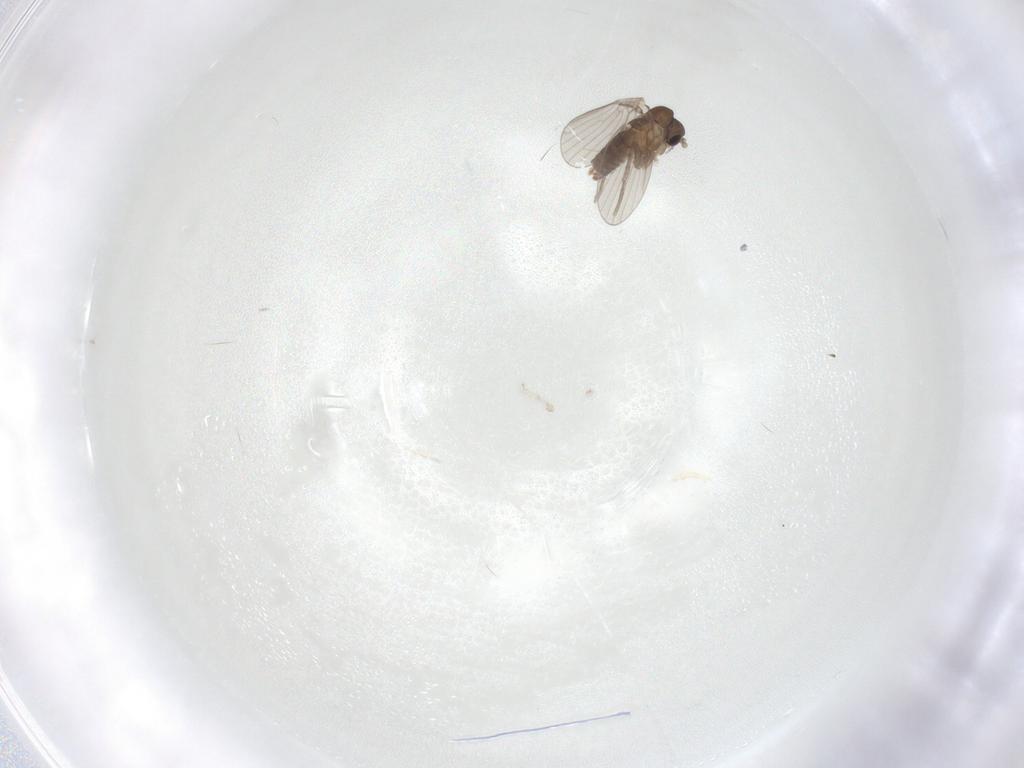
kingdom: Animalia
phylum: Arthropoda
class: Insecta
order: Diptera
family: Cecidomyiidae
